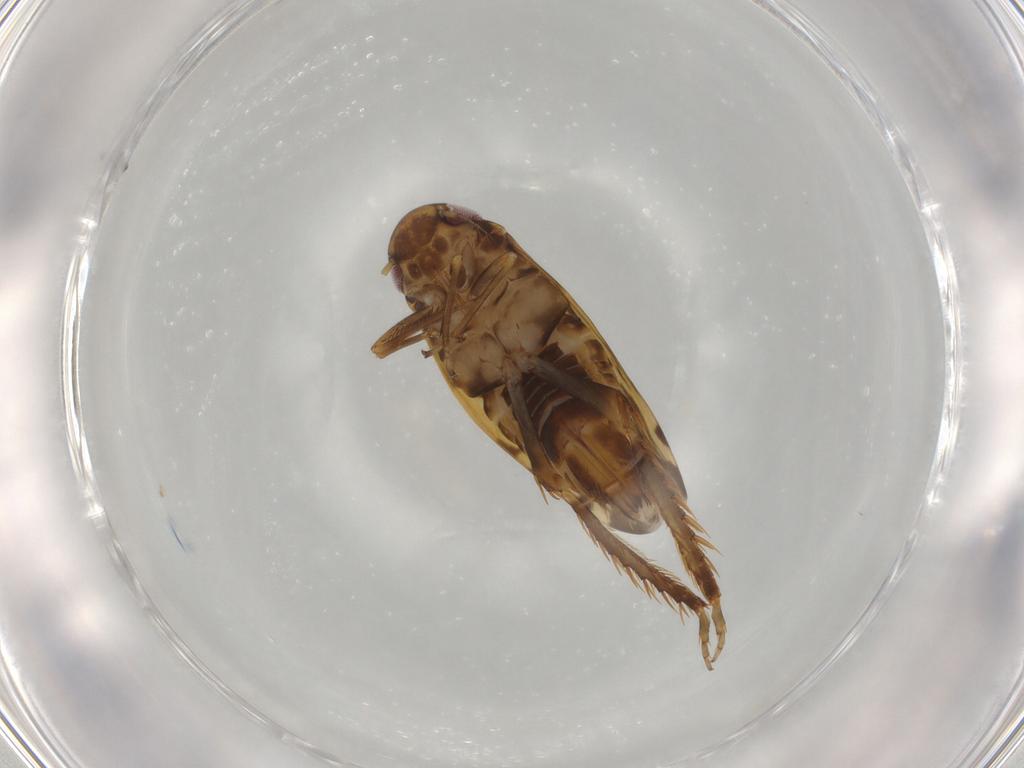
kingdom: Animalia
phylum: Arthropoda
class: Insecta
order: Hemiptera
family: Cicadellidae
